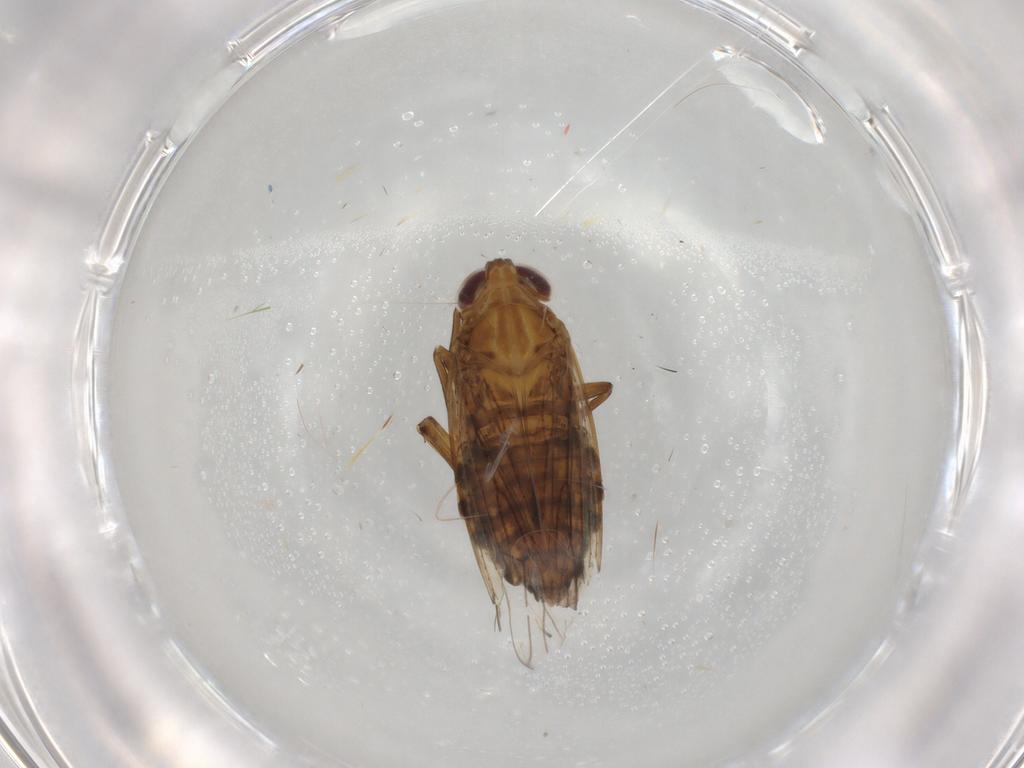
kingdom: Animalia
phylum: Arthropoda
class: Insecta
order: Hemiptera
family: Delphacidae
